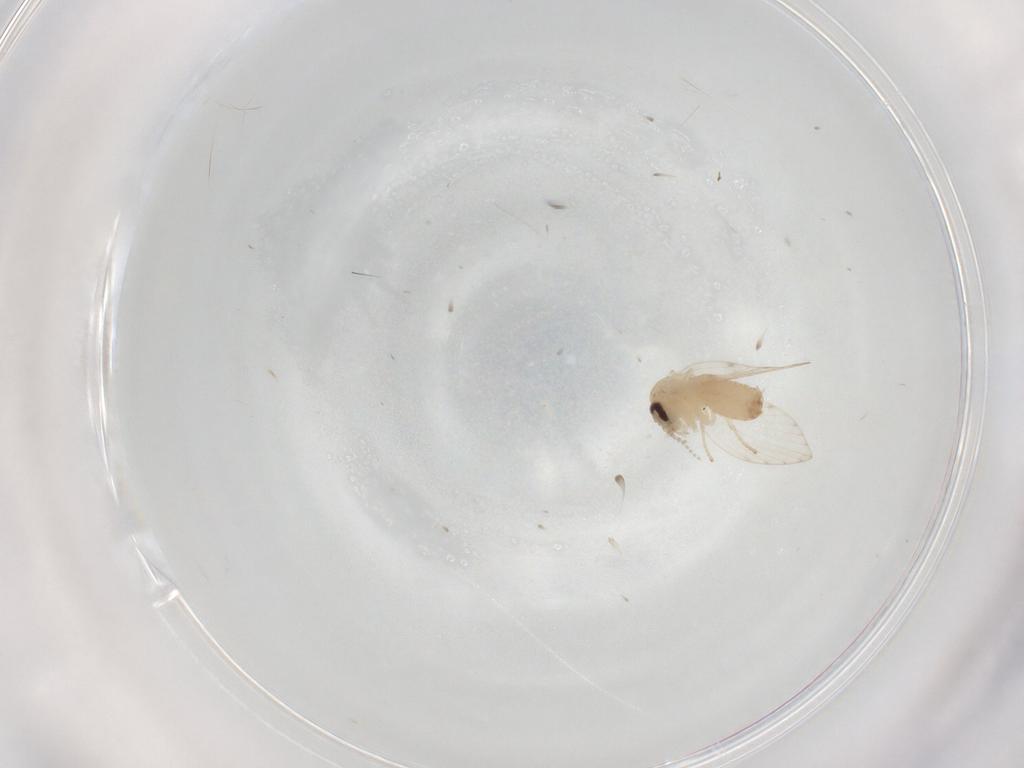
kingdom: Animalia
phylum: Arthropoda
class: Insecta
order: Diptera
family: Psychodidae
